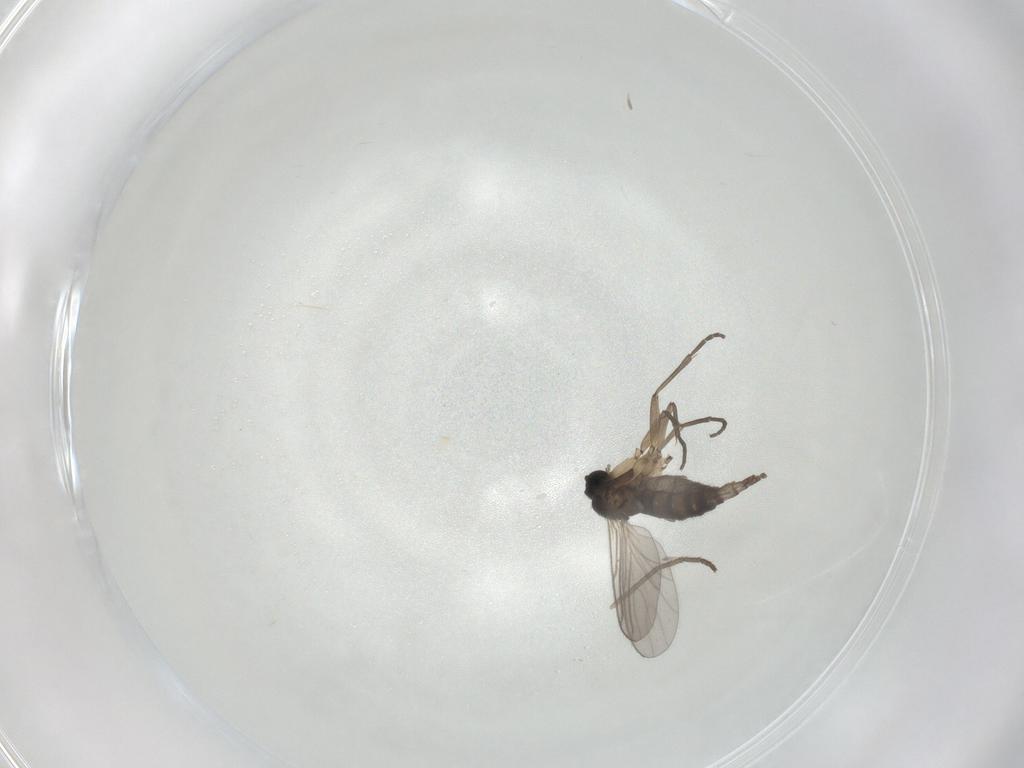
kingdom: Animalia
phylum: Arthropoda
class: Insecta
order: Diptera
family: Cecidomyiidae
